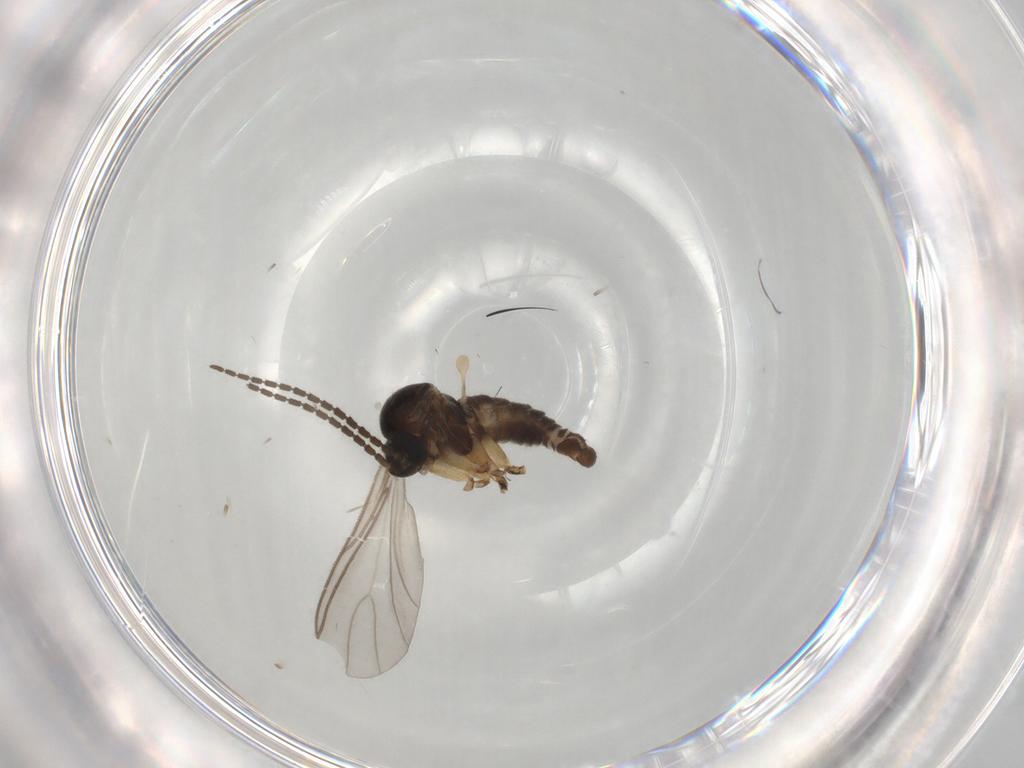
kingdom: Animalia
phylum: Arthropoda
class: Insecta
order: Diptera
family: Sciaridae
